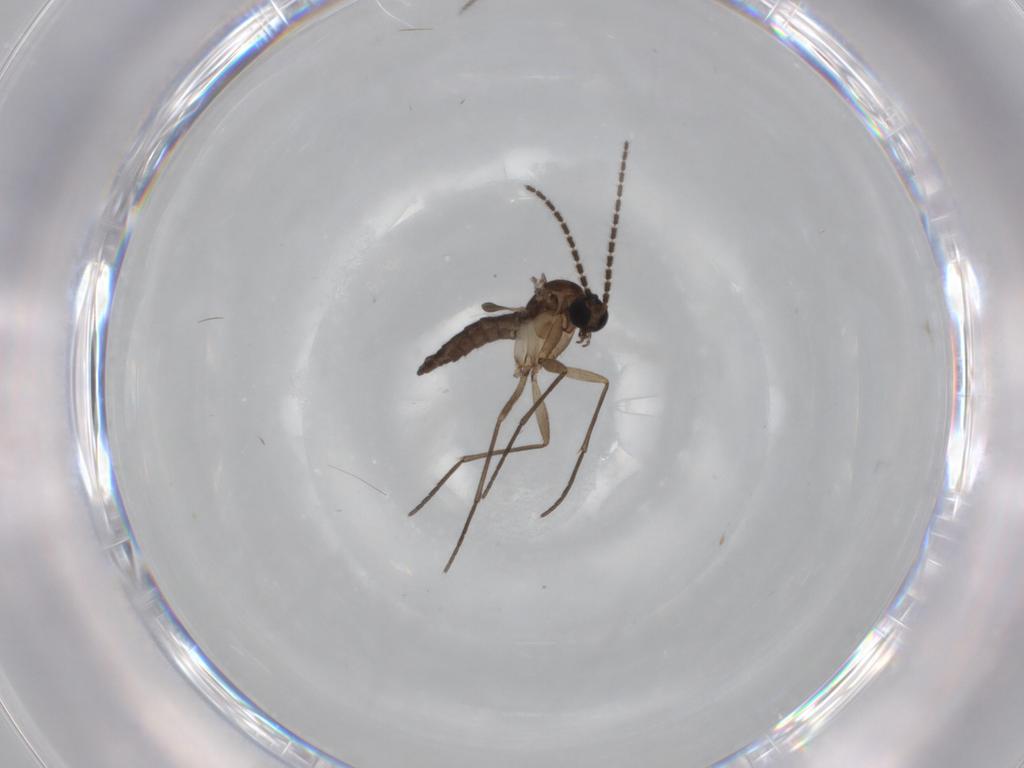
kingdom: Animalia
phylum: Arthropoda
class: Insecta
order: Diptera
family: Sciaridae
